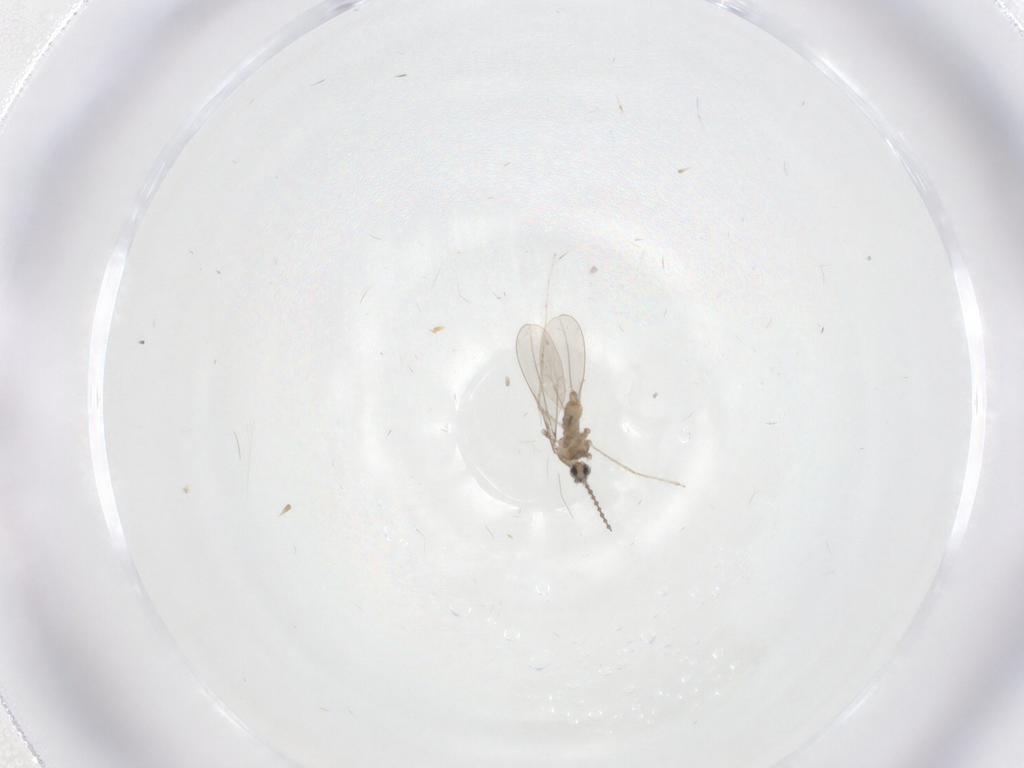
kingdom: Animalia
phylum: Arthropoda
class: Insecta
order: Diptera
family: Cecidomyiidae
